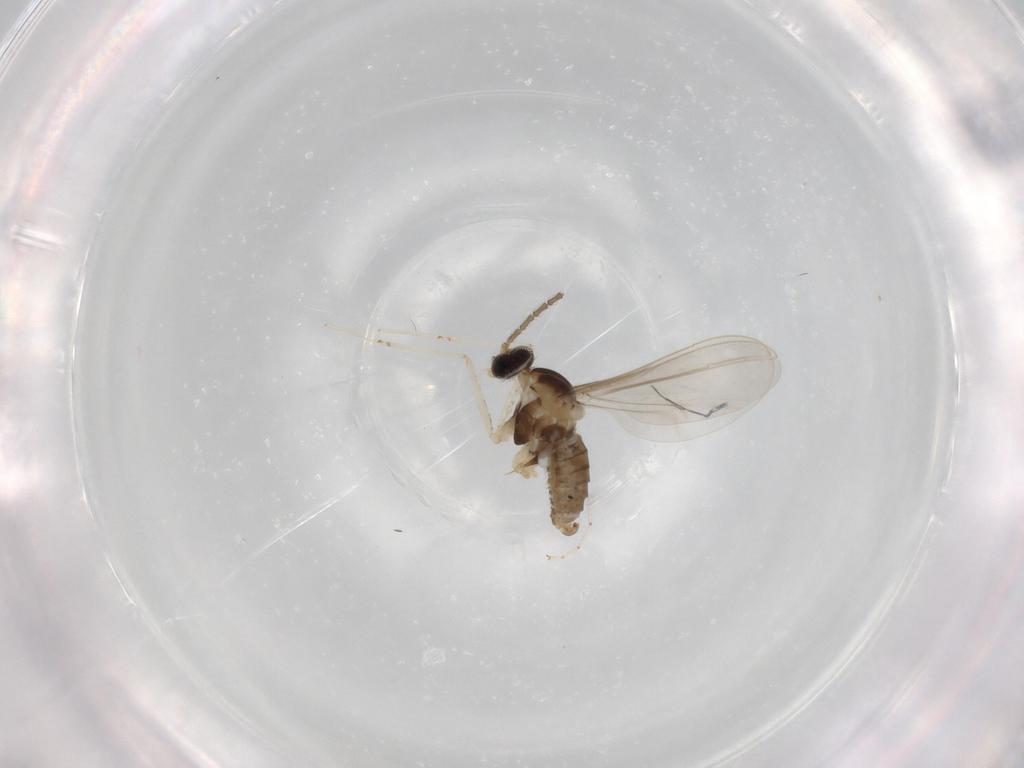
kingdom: Animalia
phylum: Arthropoda
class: Insecta
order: Diptera
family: Cecidomyiidae
